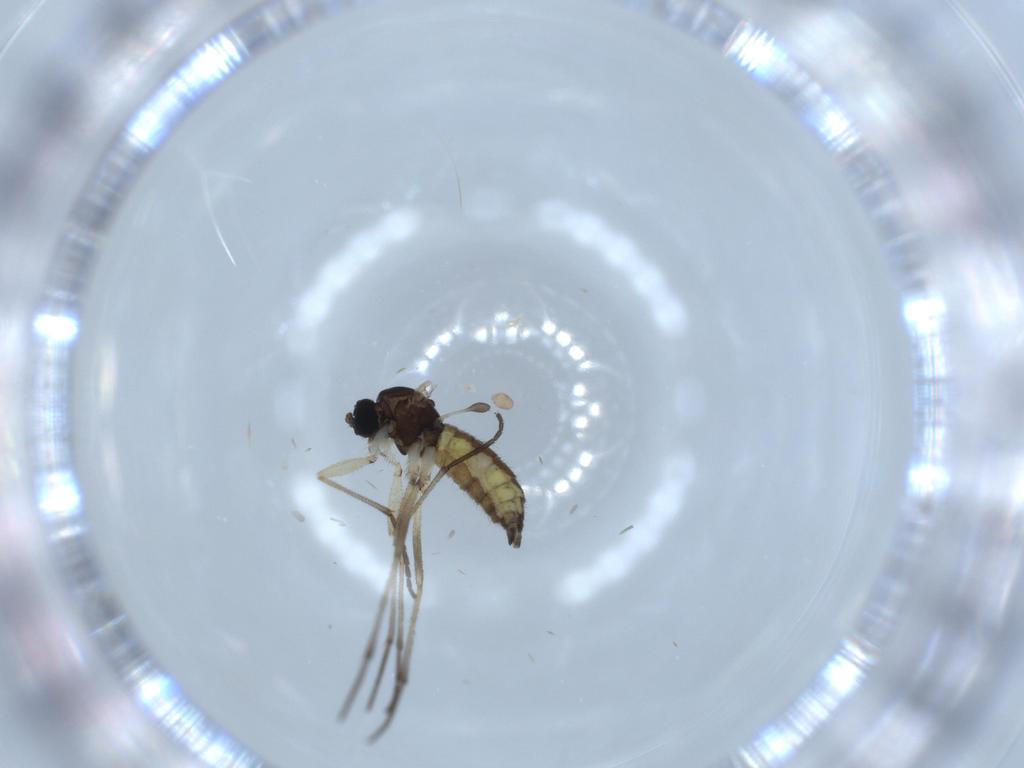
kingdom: Animalia
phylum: Arthropoda
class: Insecta
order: Diptera
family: Sciaridae
